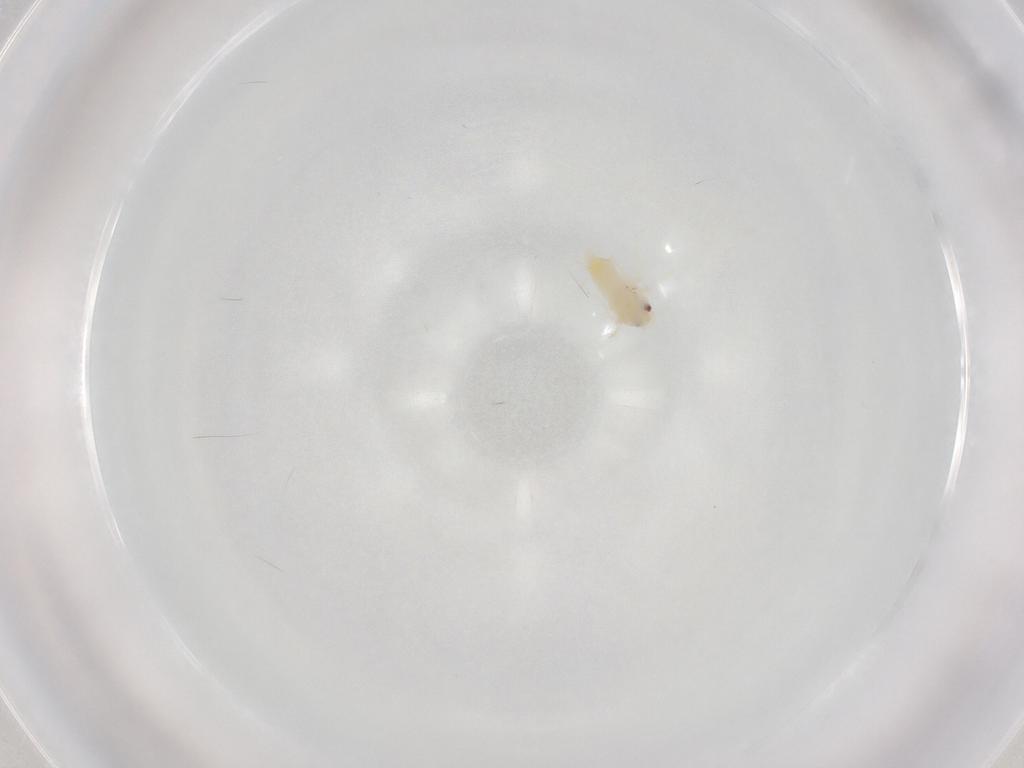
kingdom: Animalia
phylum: Arthropoda
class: Insecta
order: Hemiptera
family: Aleyrodidae
